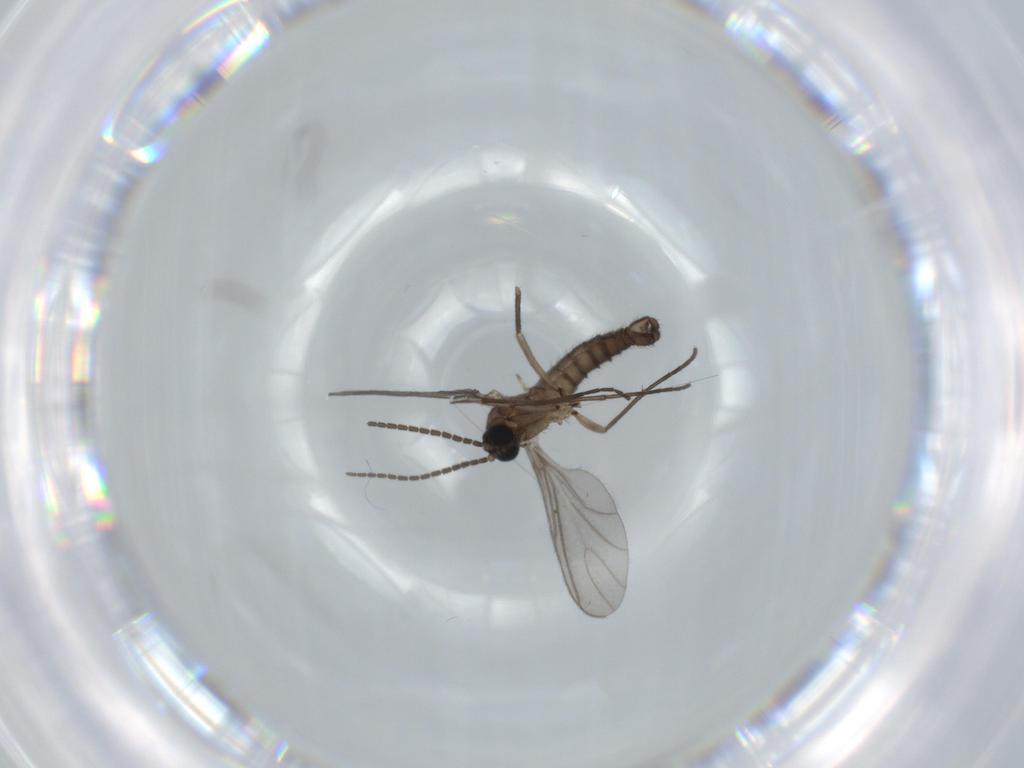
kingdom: Animalia
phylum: Arthropoda
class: Insecta
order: Diptera
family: Sciaridae
